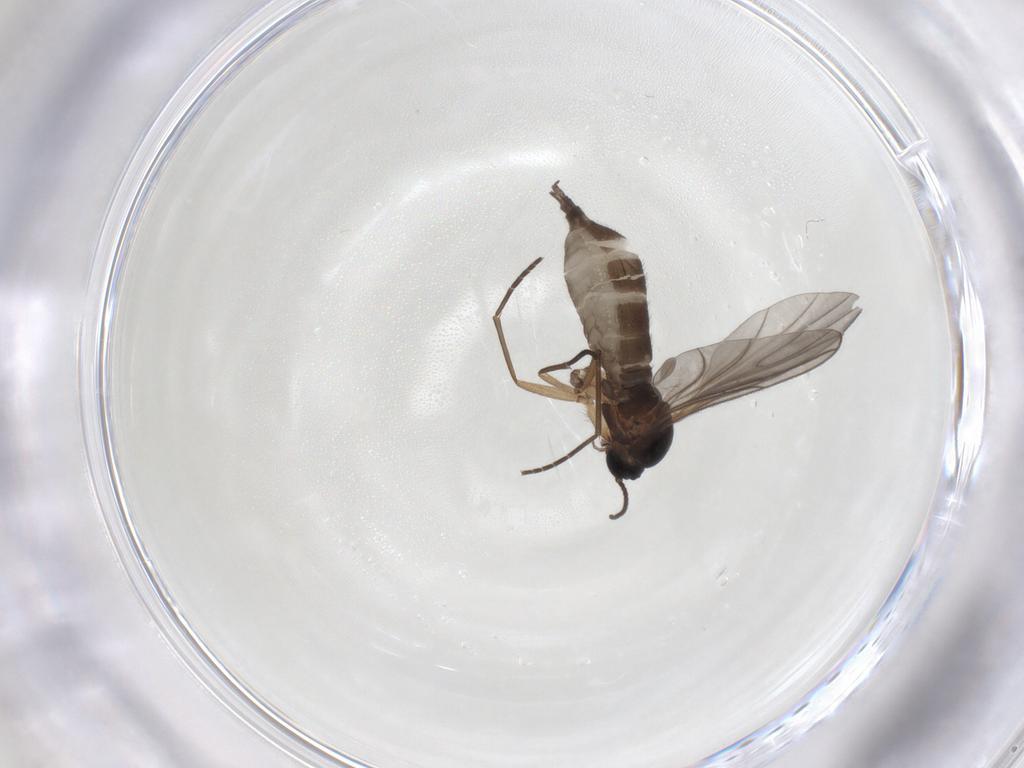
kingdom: Animalia
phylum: Arthropoda
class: Insecta
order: Diptera
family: Sciaridae
